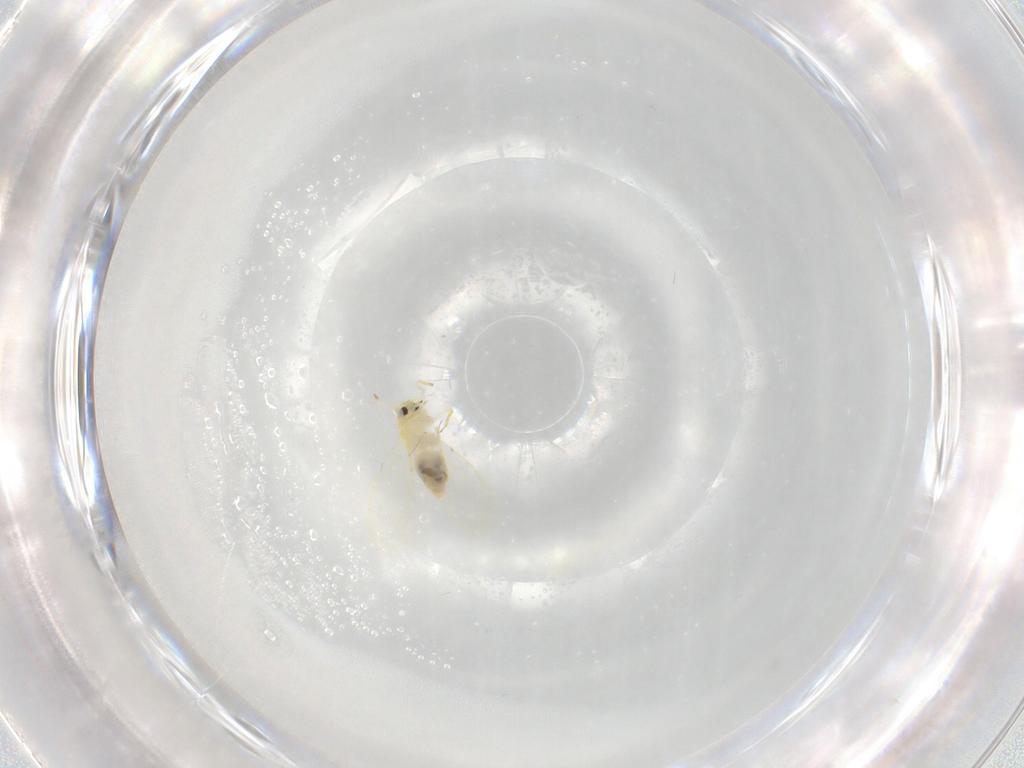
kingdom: Animalia
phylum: Arthropoda
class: Insecta
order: Hemiptera
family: Aleyrodidae
